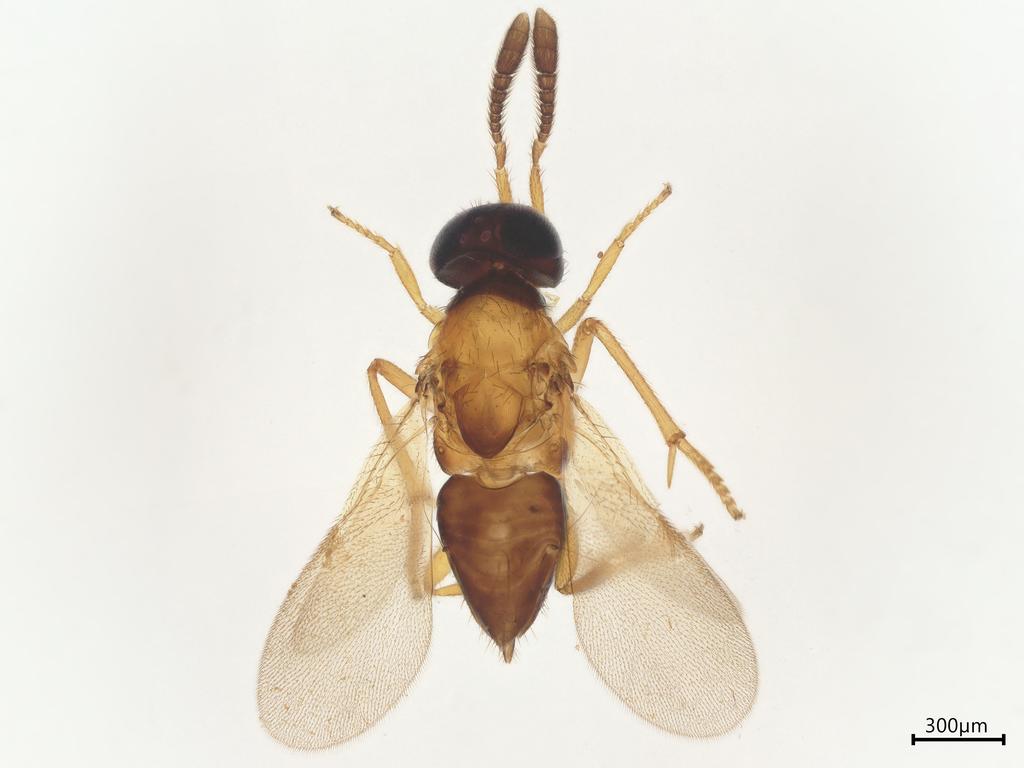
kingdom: Animalia
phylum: Arthropoda
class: Insecta
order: Hymenoptera
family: Encyrtidae
